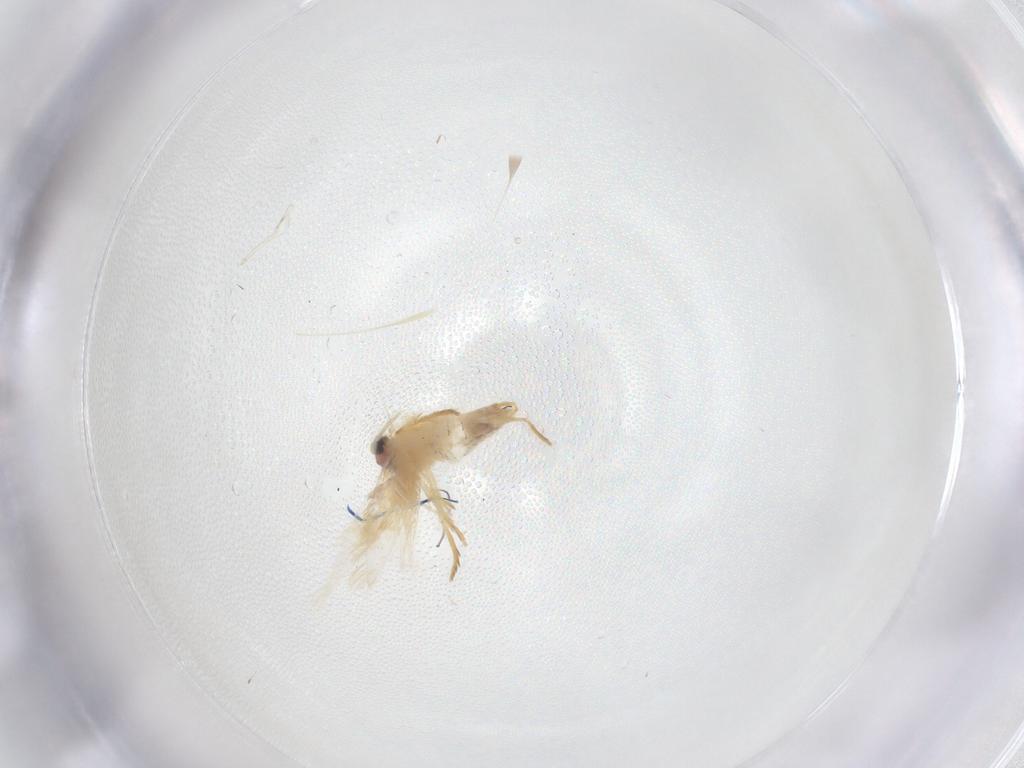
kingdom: Animalia
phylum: Arthropoda
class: Insecta
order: Lepidoptera
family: Nepticulidae
